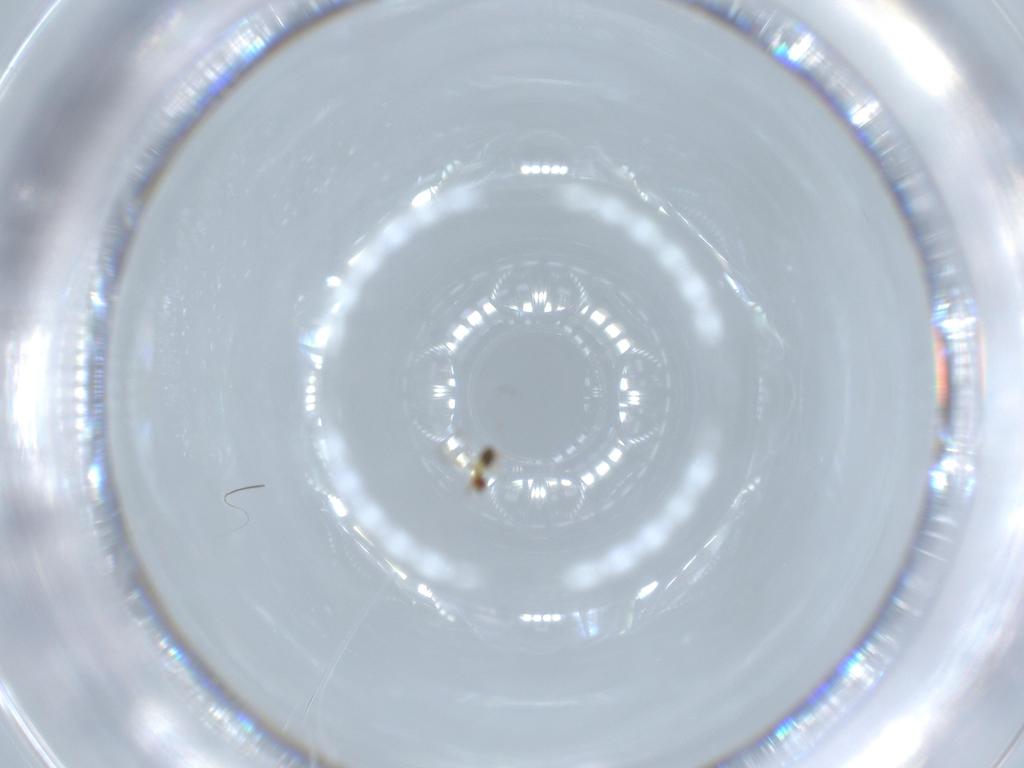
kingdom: Animalia
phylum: Arthropoda
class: Insecta
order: Hymenoptera
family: Trichogrammatidae
